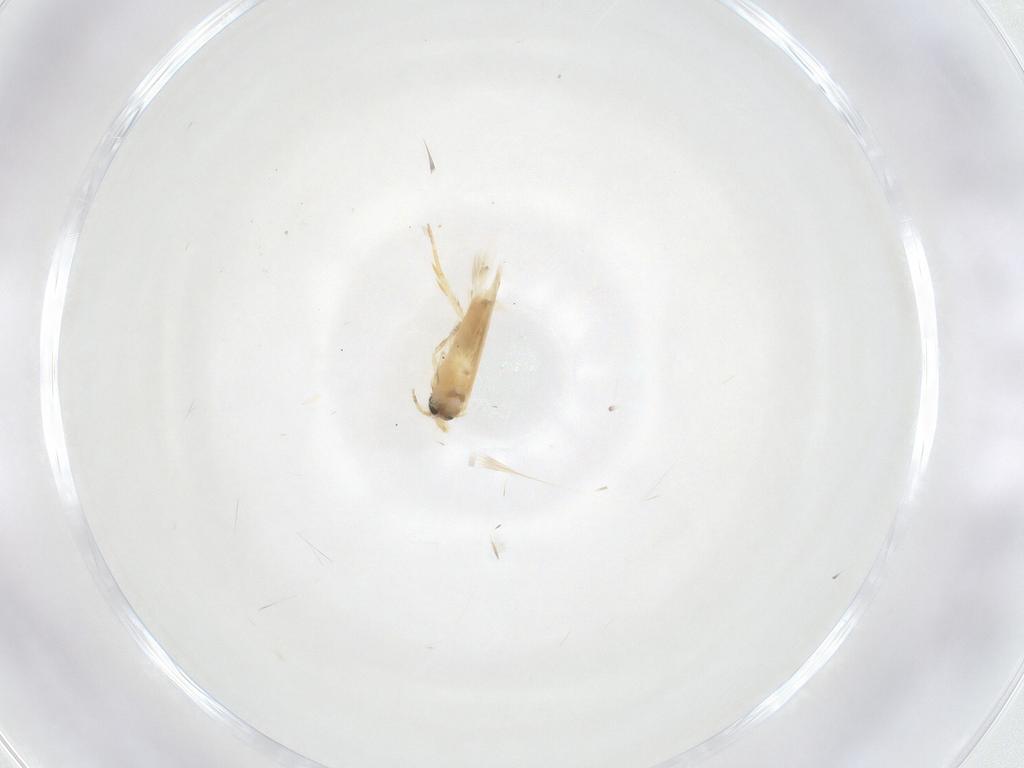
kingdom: Animalia
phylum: Arthropoda
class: Insecta
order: Lepidoptera
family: Crambidae
